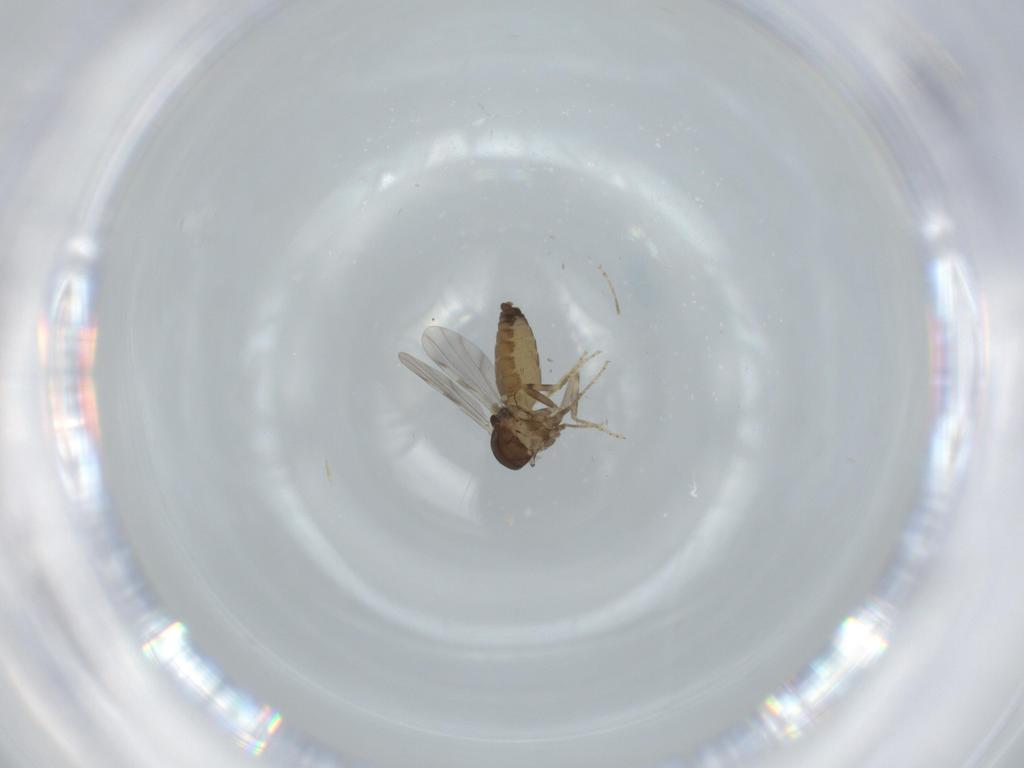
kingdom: Animalia
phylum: Arthropoda
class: Insecta
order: Diptera
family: Ceratopogonidae
